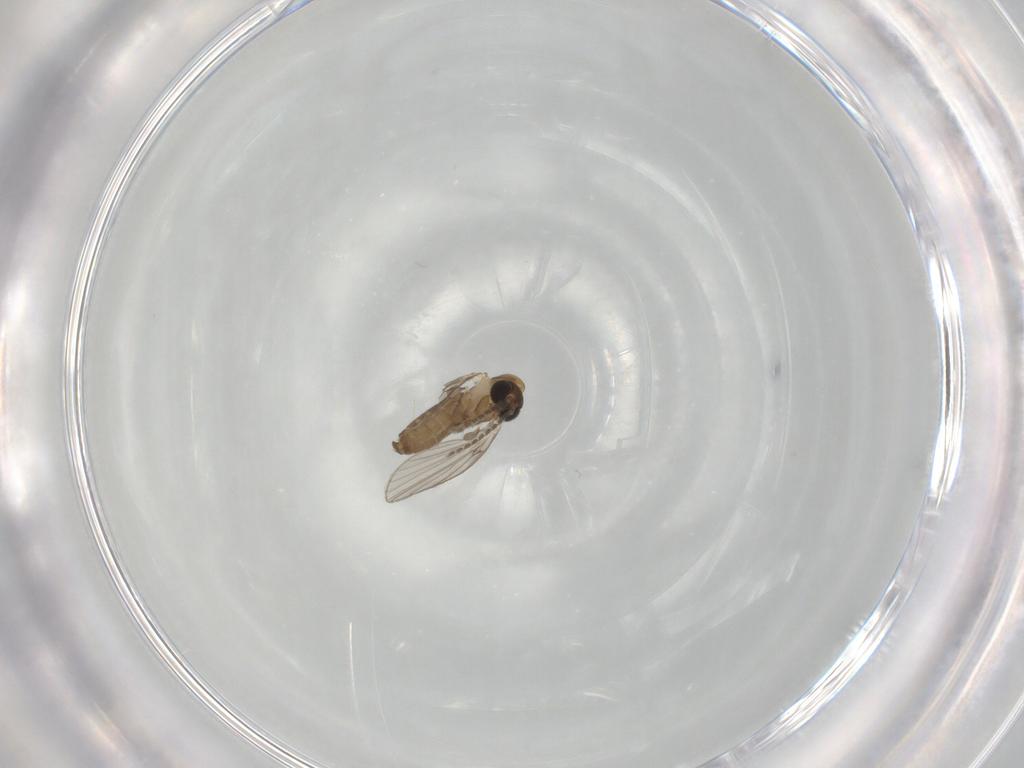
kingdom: Animalia
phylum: Arthropoda
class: Insecta
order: Diptera
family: Psychodidae
